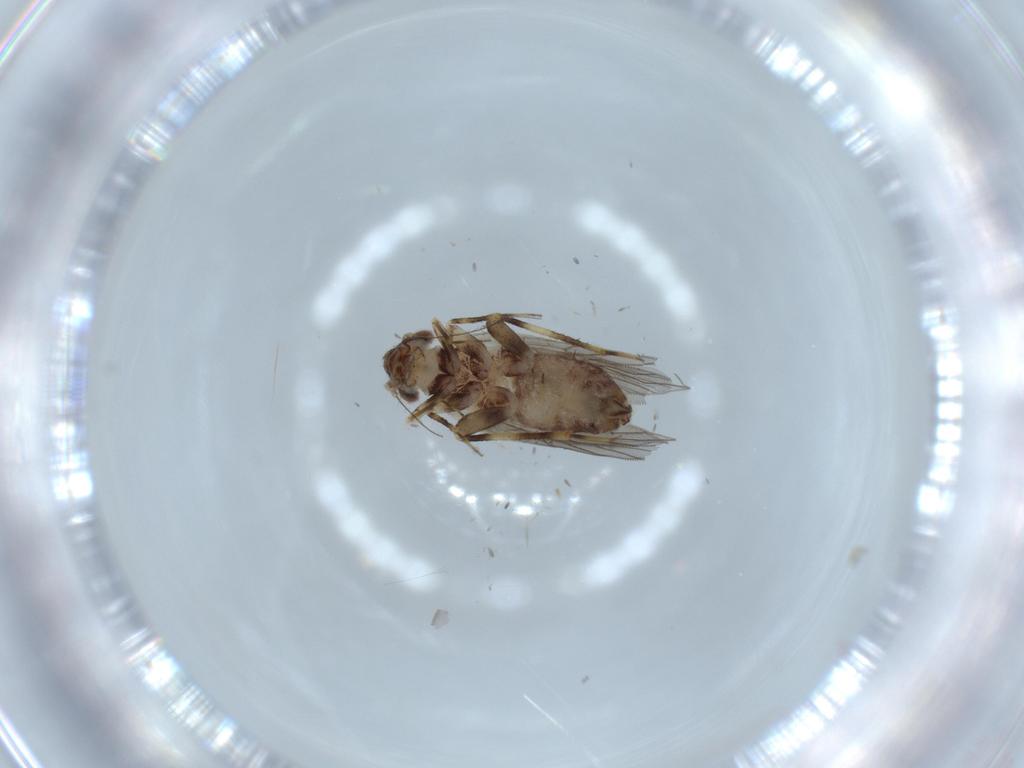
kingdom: Animalia
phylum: Arthropoda
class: Insecta
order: Psocodea
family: Lepidopsocidae
